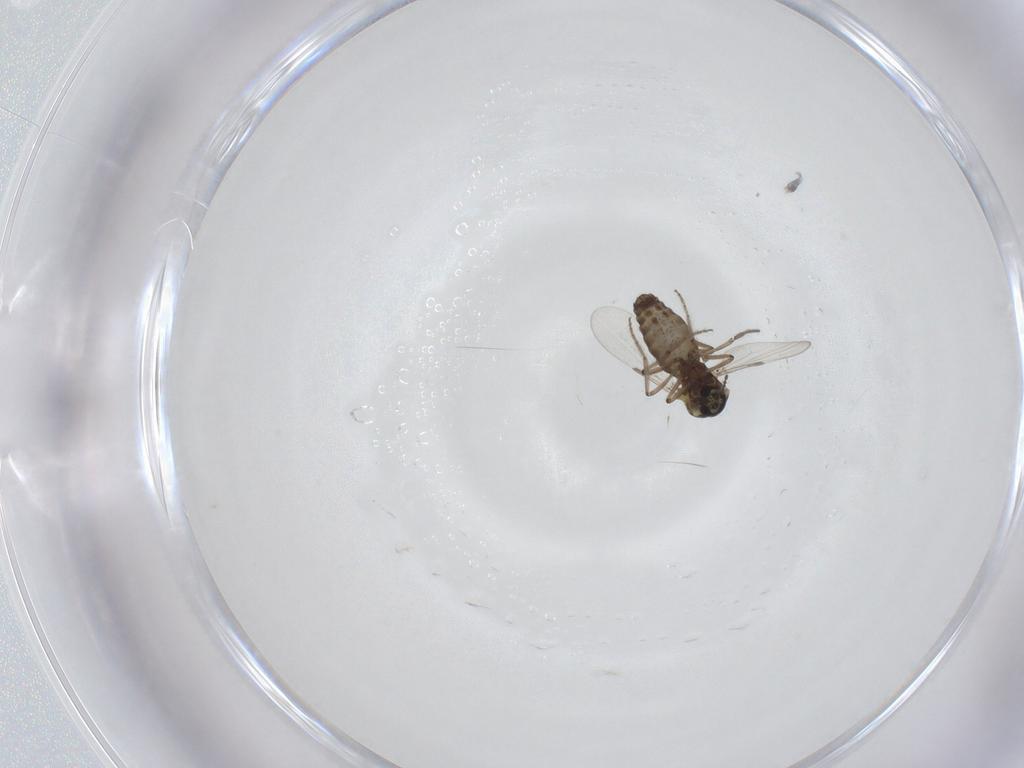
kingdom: Animalia
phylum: Arthropoda
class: Insecta
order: Diptera
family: Ceratopogonidae
